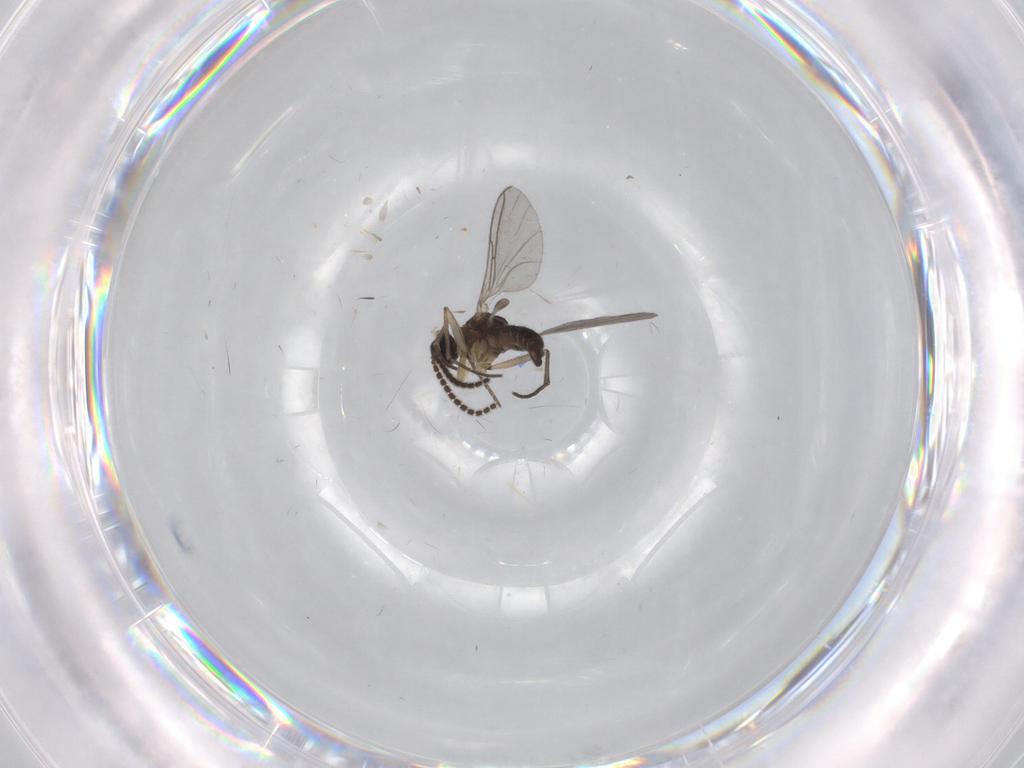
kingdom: Animalia
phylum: Arthropoda
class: Insecta
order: Diptera
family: Sciaridae
